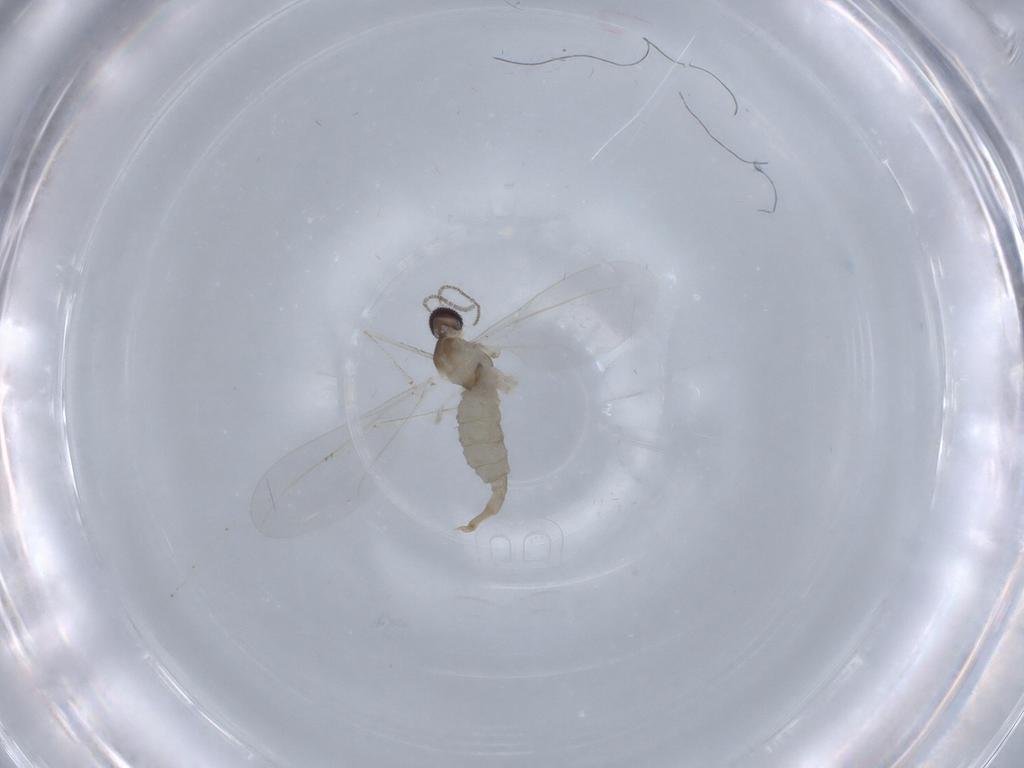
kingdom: Animalia
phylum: Arthropoda
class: Insecta
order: Diptera
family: Cecidomyiidae
